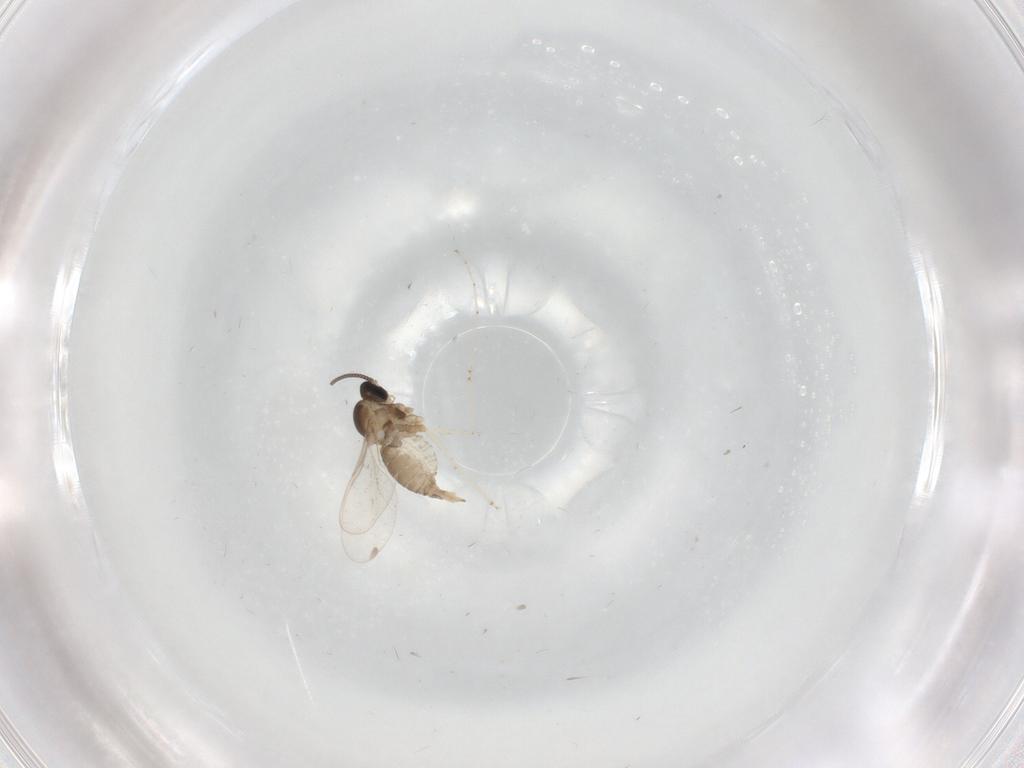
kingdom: Animalia
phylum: Arthropoda
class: Insecta
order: Diptera
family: Cecidomyiidae
